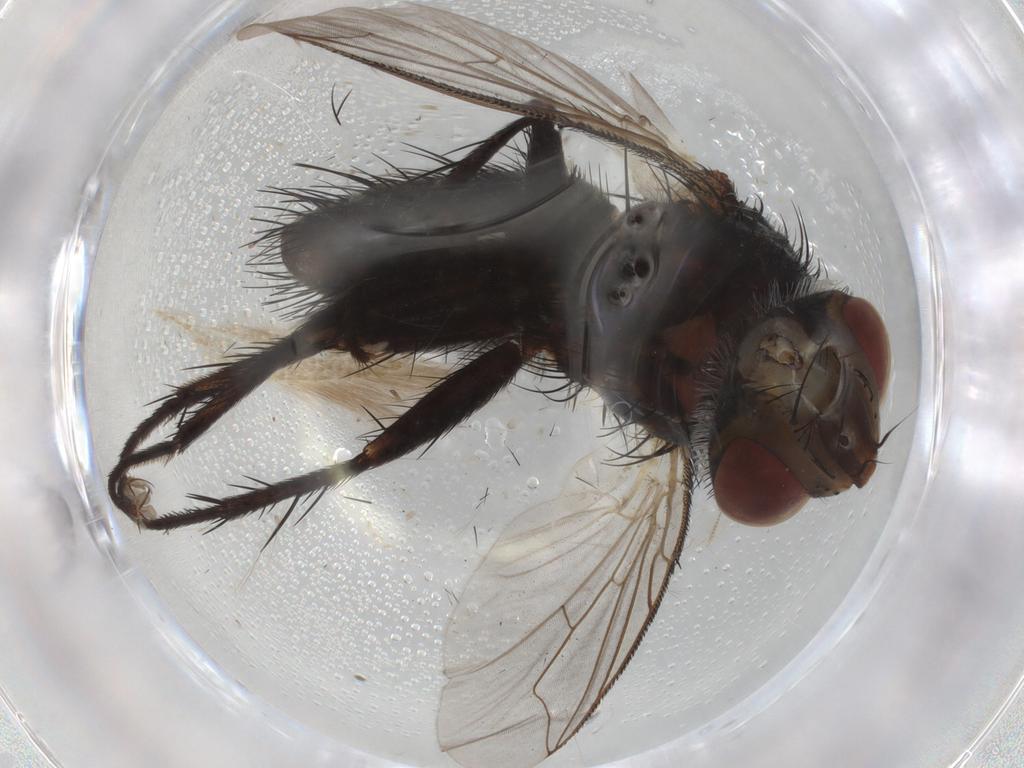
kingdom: Animalia
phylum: Arthropoda
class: Insecta
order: Diptera
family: Tachinidae
